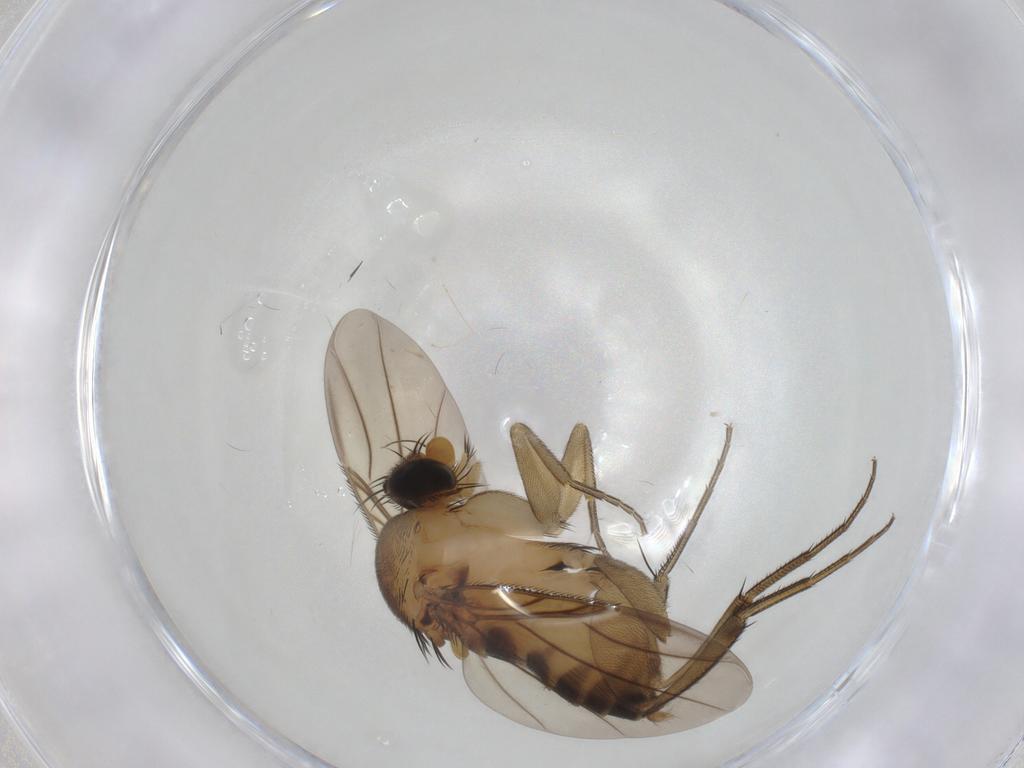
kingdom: Animalia
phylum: Arthropoda
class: Insecta
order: Diptera
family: Phoridae
